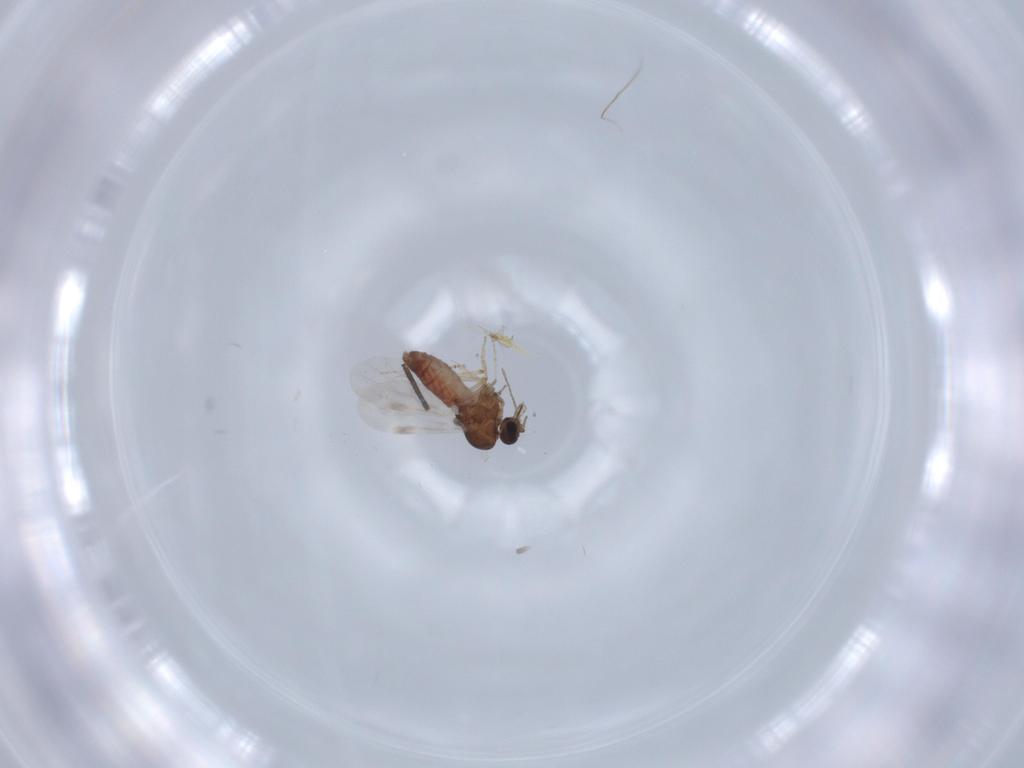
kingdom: Animalia
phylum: Arthropoda
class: Insecta
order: Diptera
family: Ceratopogonidae
